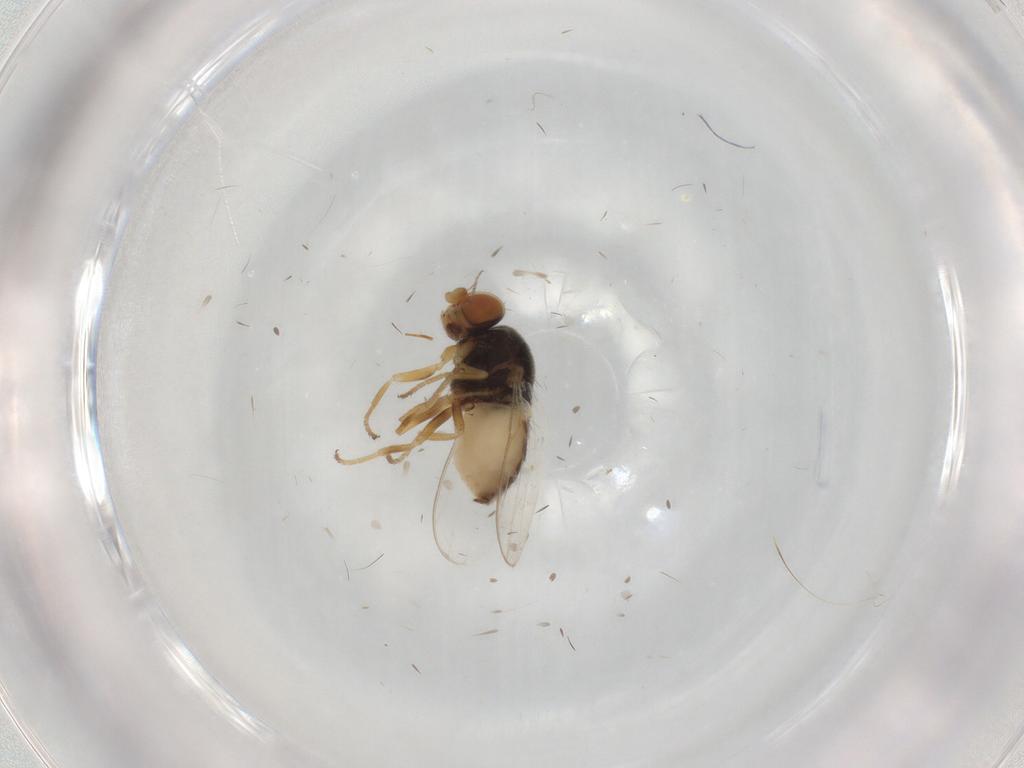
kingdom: Animalia
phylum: Arthropoda
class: Insecta
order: Diptera
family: Chloropidae
